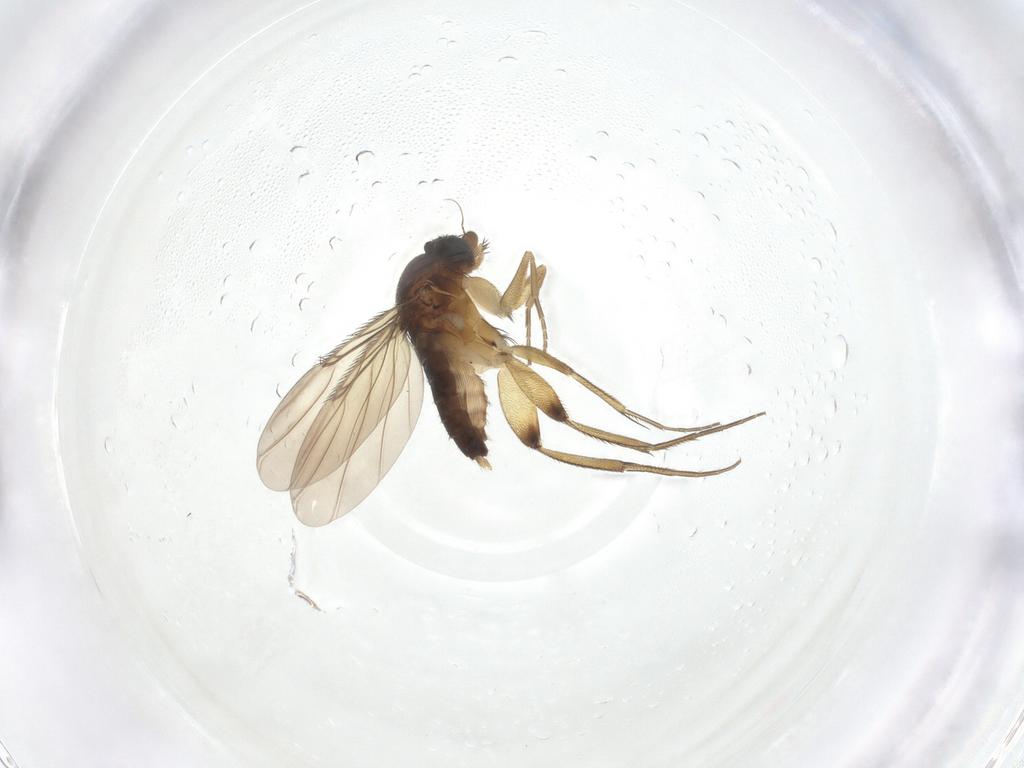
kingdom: Animalia
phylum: Arthropoda
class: Insecta
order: Diptera
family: Phoridae
